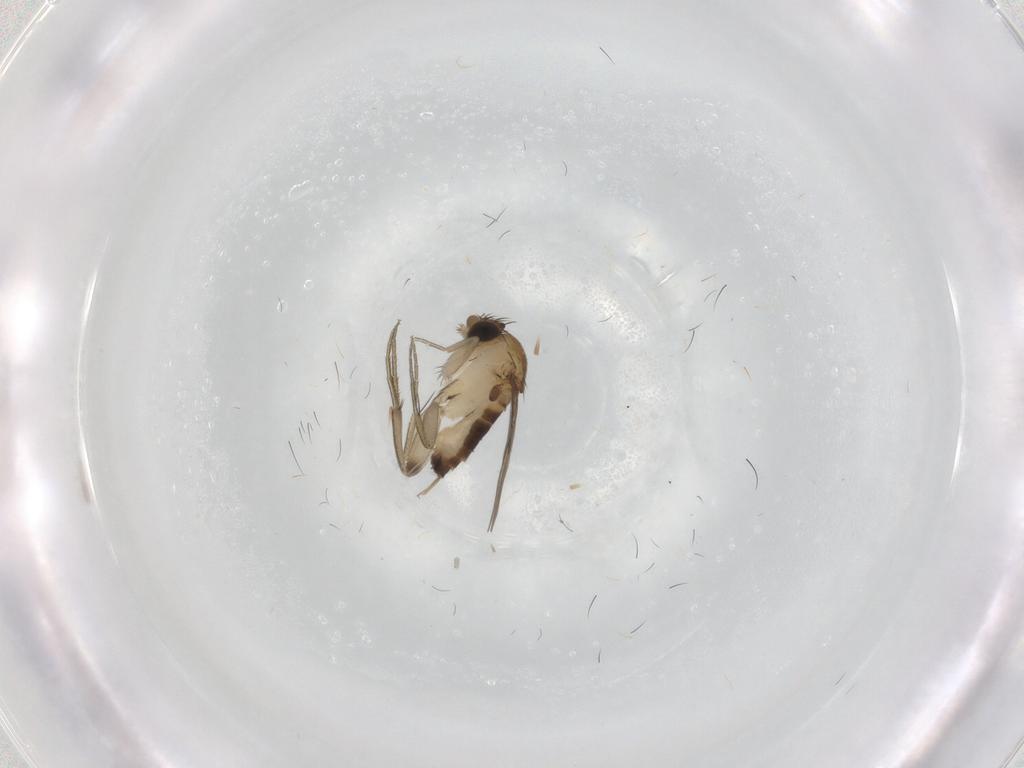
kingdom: Animalia
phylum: Arthropoda
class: Insecta
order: Diptera
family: Phoridae
